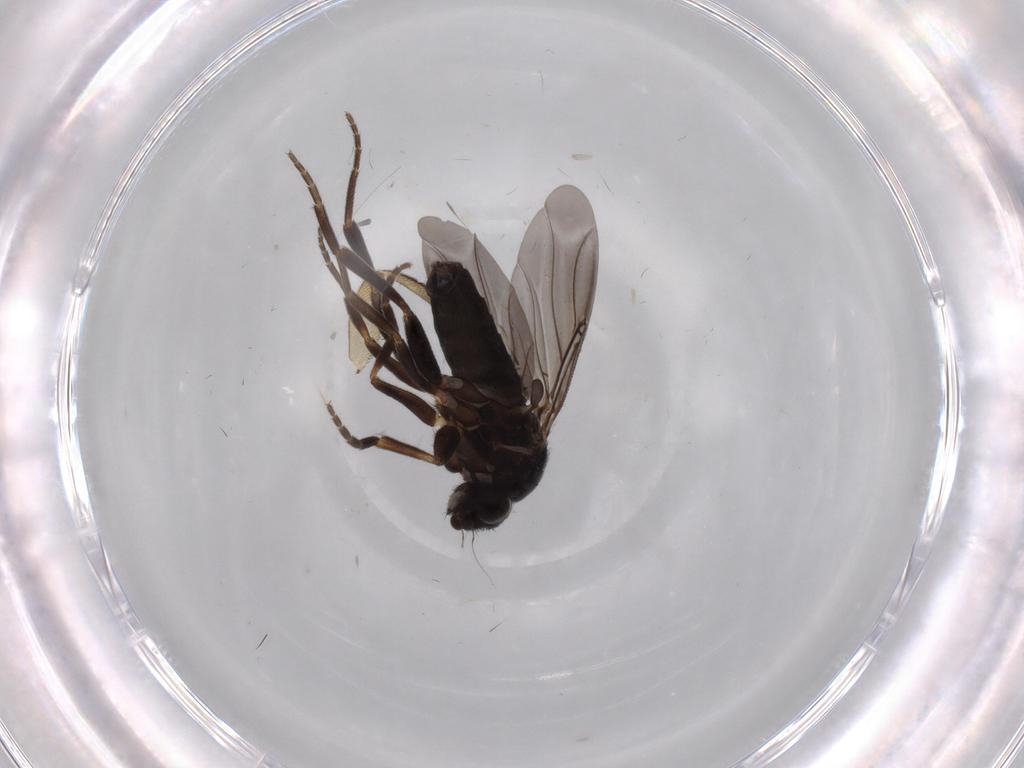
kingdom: Animalia
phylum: Arthropoda
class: Insecta
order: Diptera
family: Phoridae
